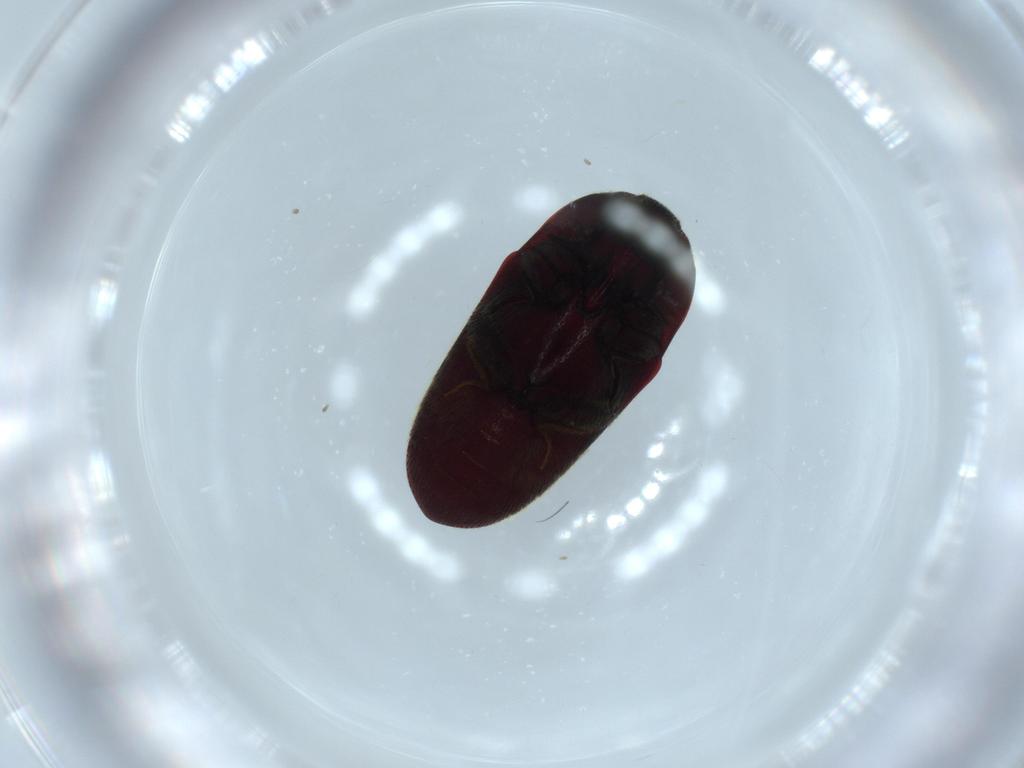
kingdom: Animalia
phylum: Arthropoda
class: Insecta
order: Coleoptera
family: Throscidae
